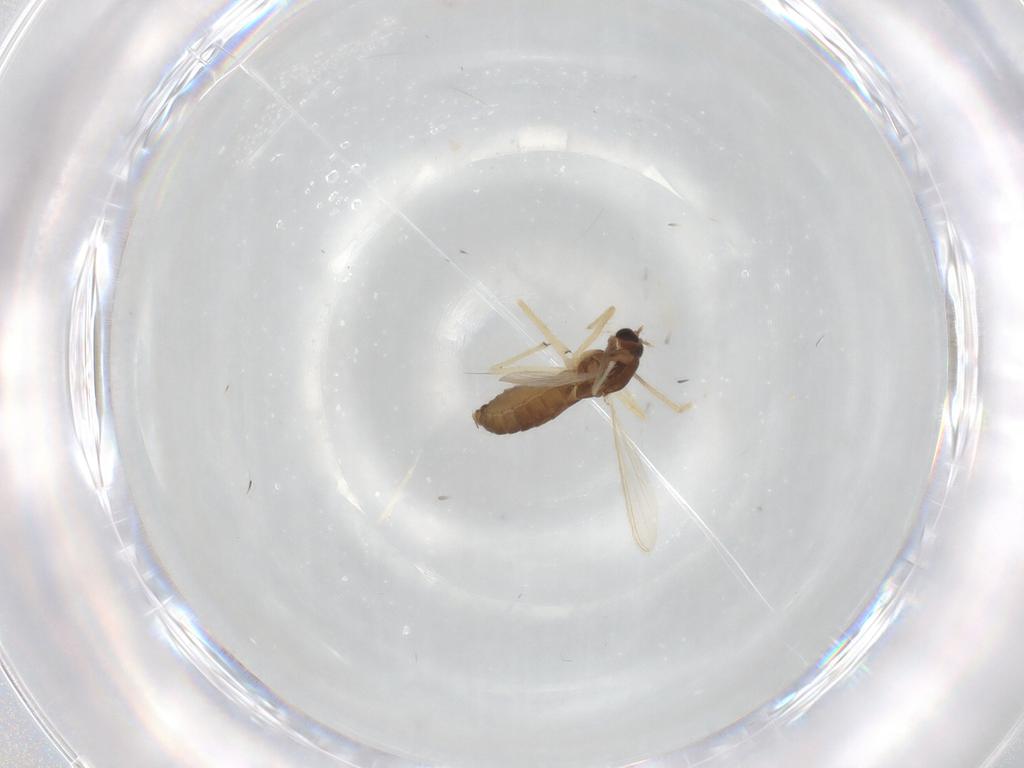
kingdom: Animalia
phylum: Arthropoda
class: Insecta
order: Diptera
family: Chironomidae
